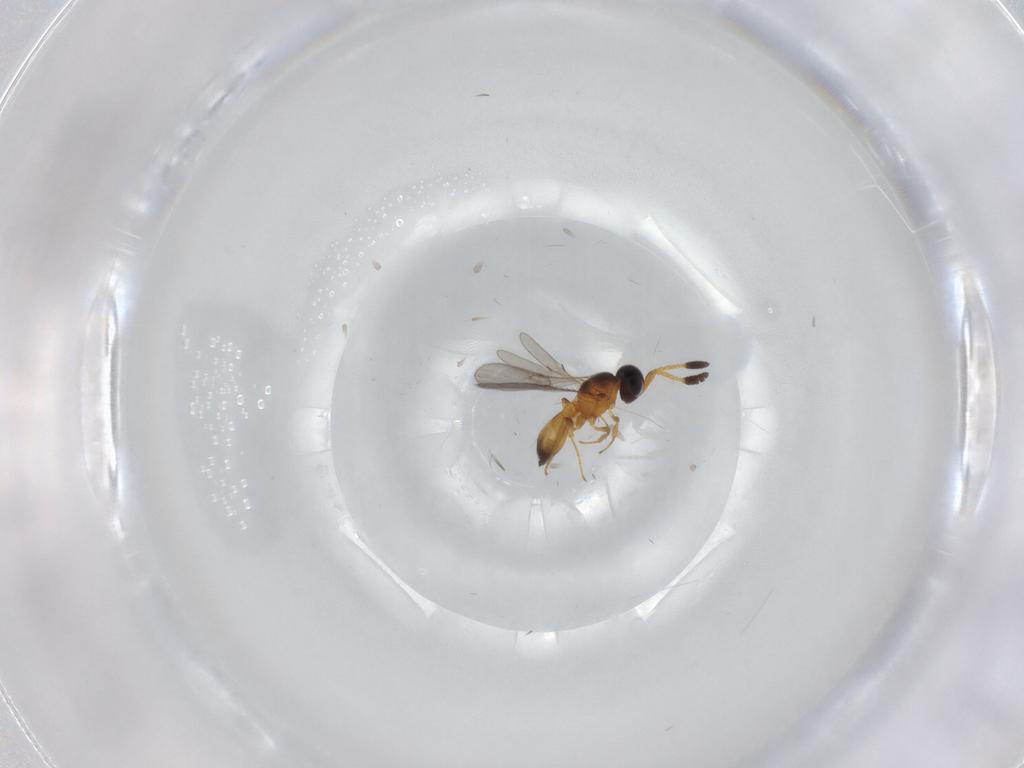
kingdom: Animalia
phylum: Arthropoda
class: Insecta
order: Hymenoptera
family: Scelionidae
